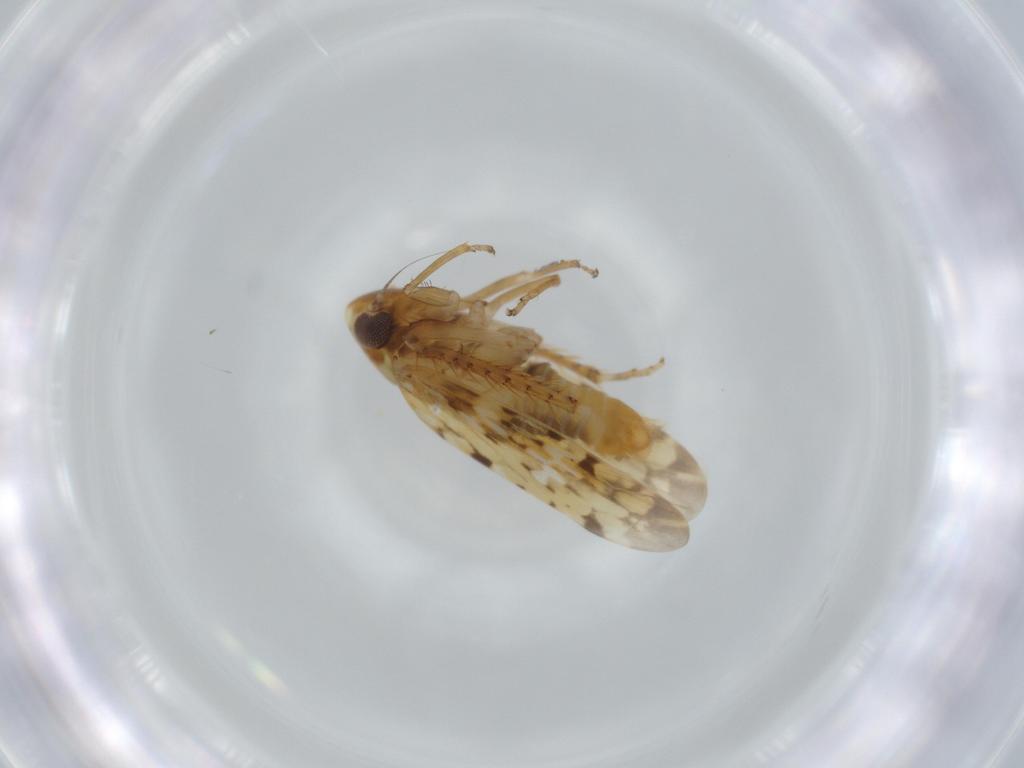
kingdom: Animalia
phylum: Arthropoda
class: Insecta
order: Hemiptera
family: Cicadellidae
